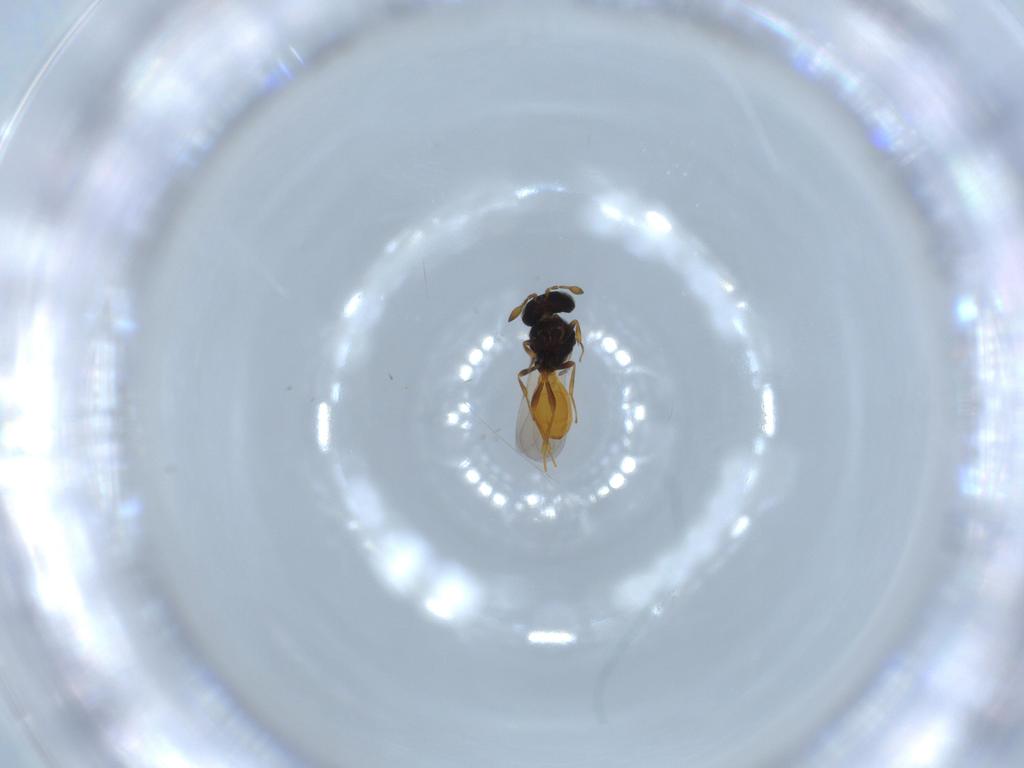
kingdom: Animalia
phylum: Arthropoda
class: Insecta
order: Hymenoptera
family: Scelionidae
